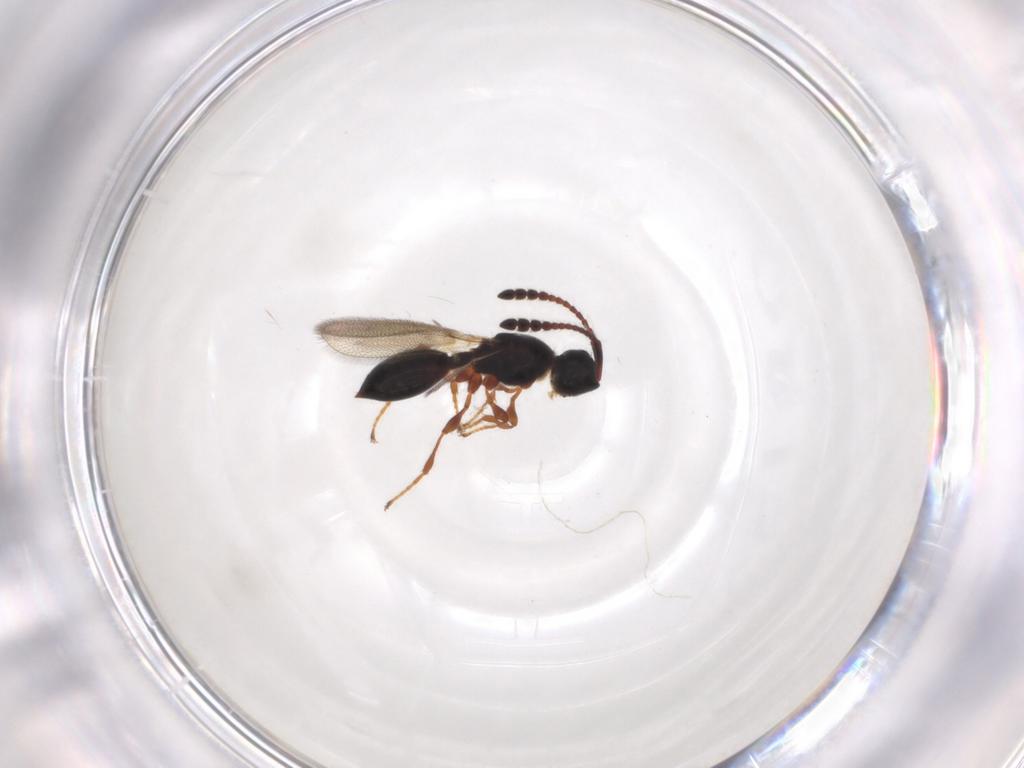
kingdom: Animalia
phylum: Arthropoda
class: Insecta
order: Hymenoptera
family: Diapriidae
